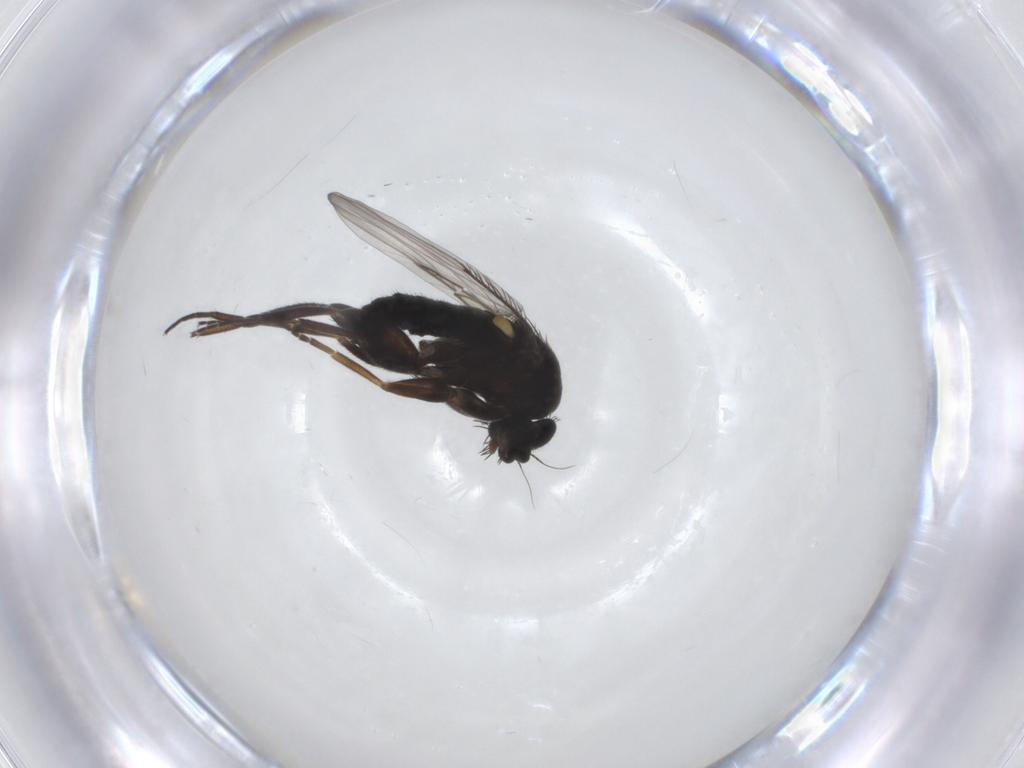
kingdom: Animalia
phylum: Arthropoda
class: Insecta
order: Diptera
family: Phoridae
